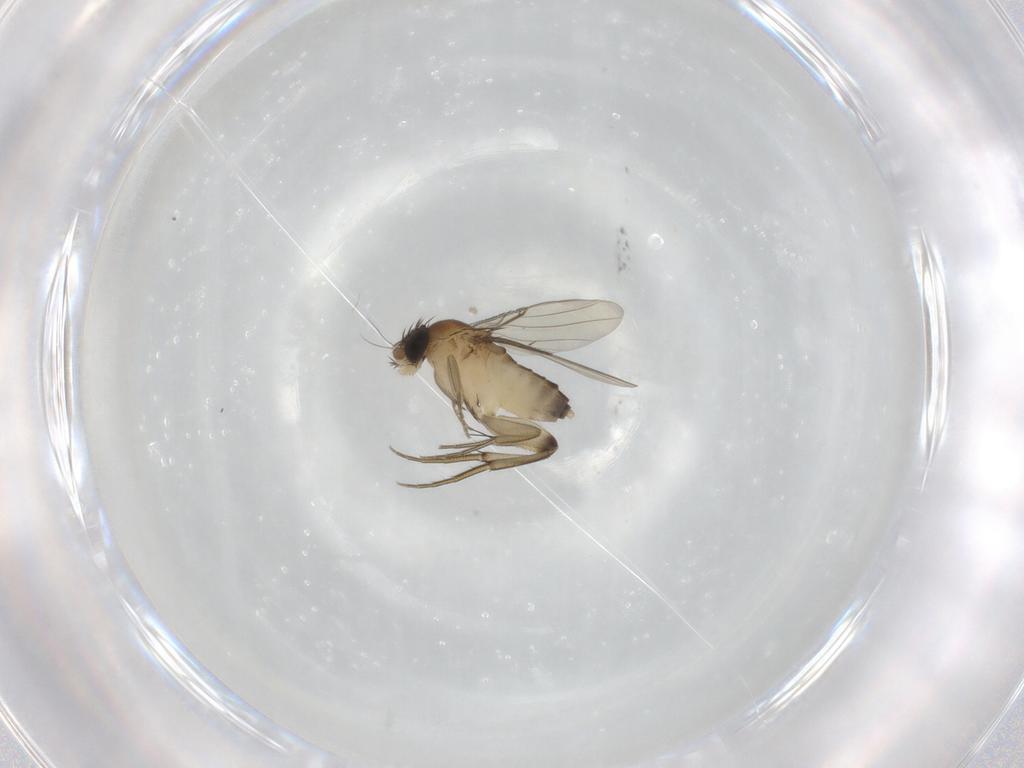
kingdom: Animalia
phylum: Arthropoda
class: Insecta
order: Diptera
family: Phoridae
